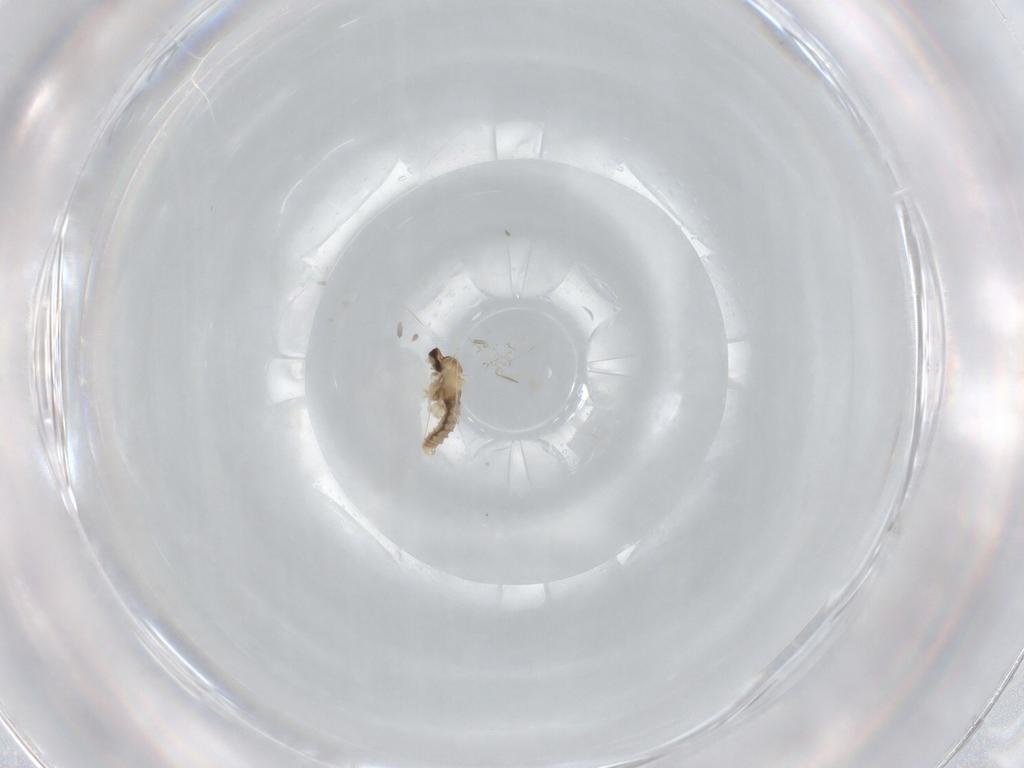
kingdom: Animalia
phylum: Arthropoda
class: Insecta
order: Diptera
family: Cecidomyiidae
